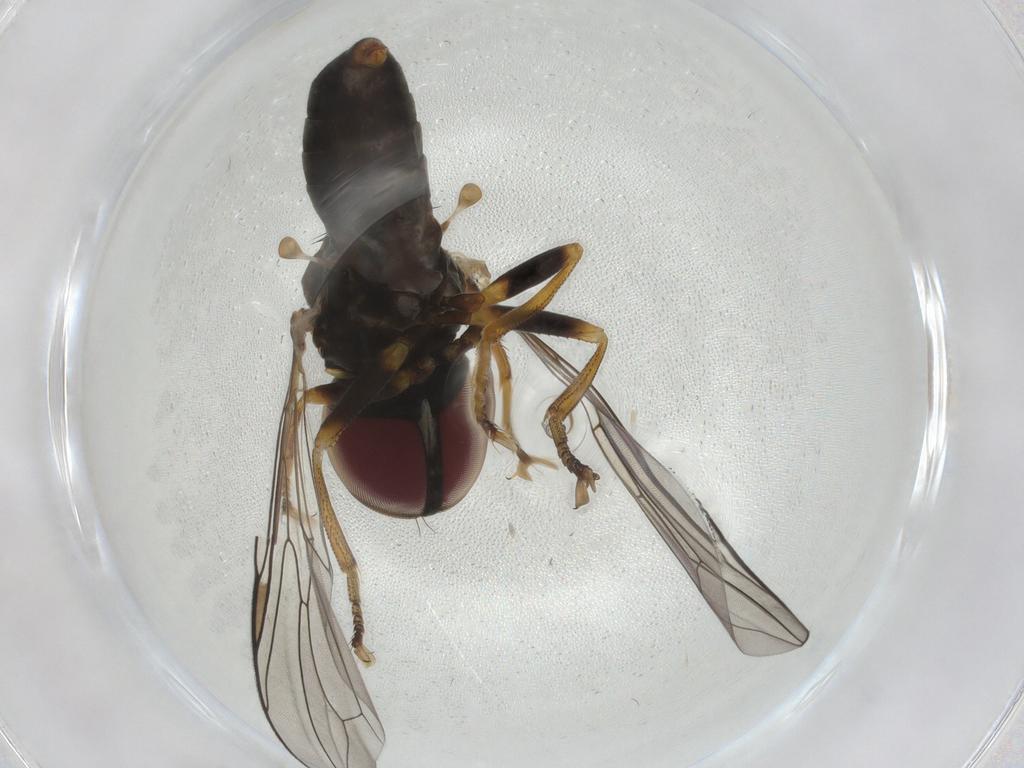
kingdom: Animalia
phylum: Arthropoda
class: Insecta
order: Diptera
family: Pipunculidae
